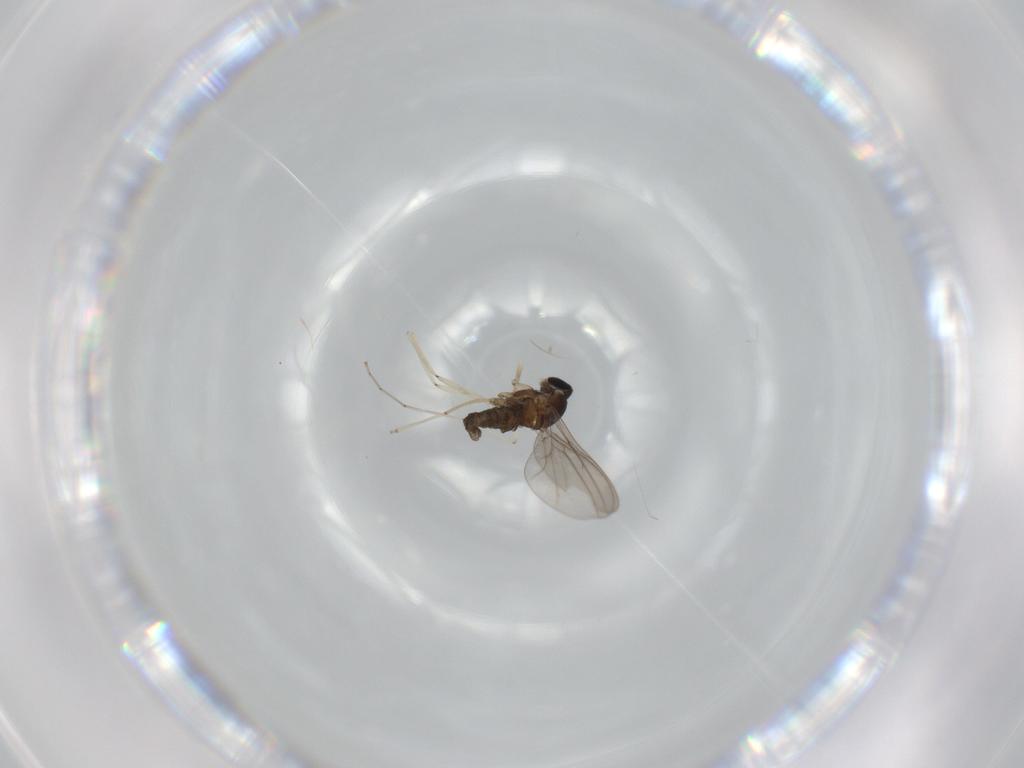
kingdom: Animalia
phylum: Arthropoda
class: Insecta
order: Diptera
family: Cecidomyiidae
